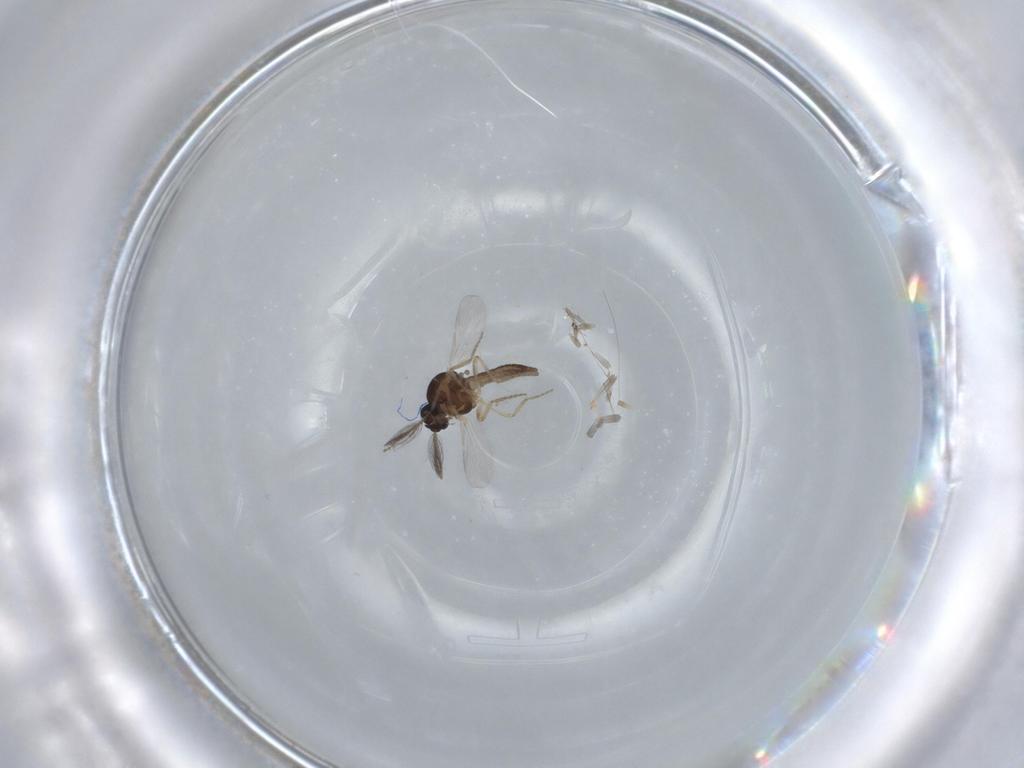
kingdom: Animalia
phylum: Arthropoda
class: Insecta
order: Diptera
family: Ceratopogonidae
